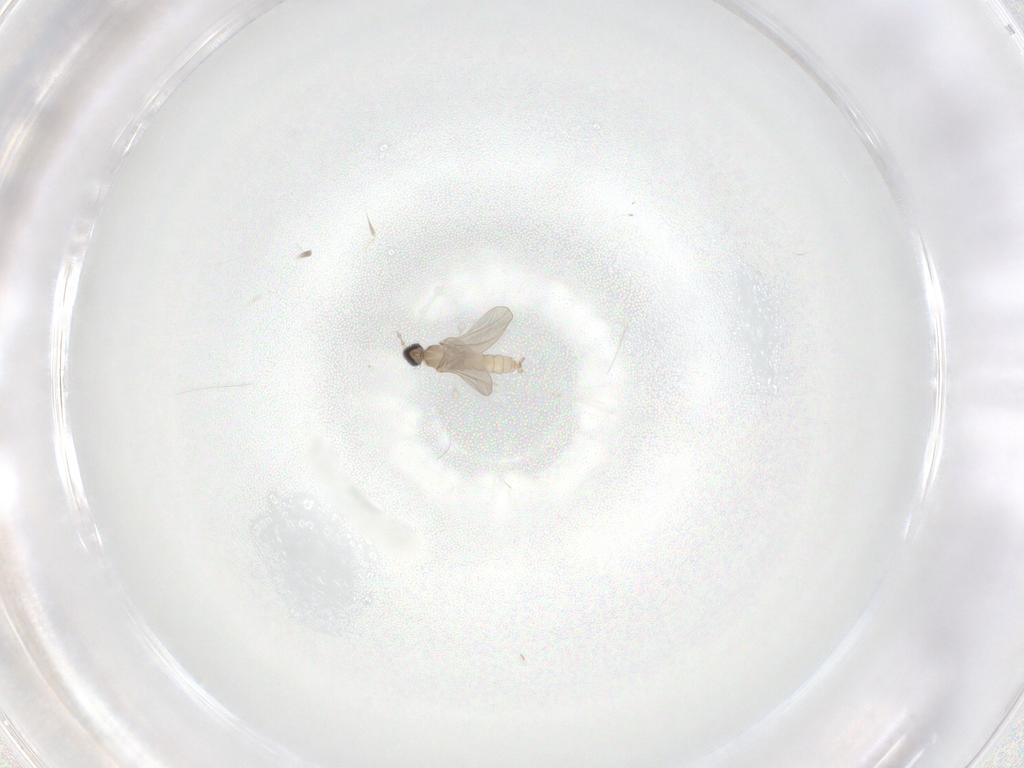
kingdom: Animalia
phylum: Arthropoda
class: Insecta
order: Diptera
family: Cecidomyiidae
